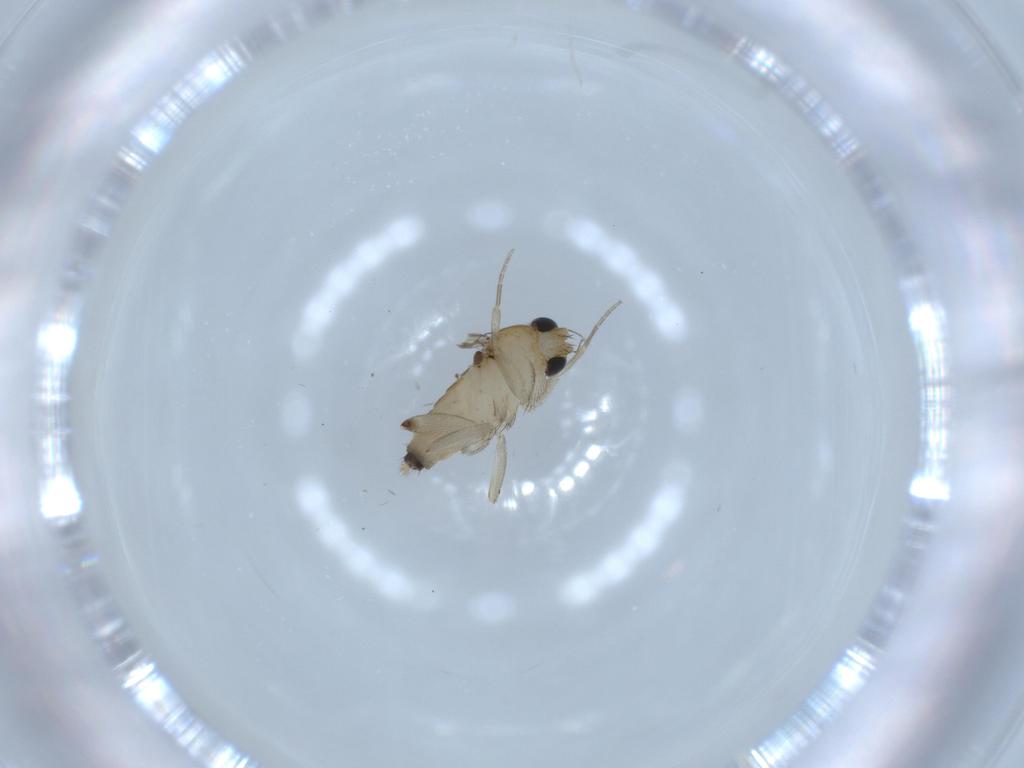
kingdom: Animalia
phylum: Arthropoda
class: Insecta
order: Diptera
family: Phoridae
